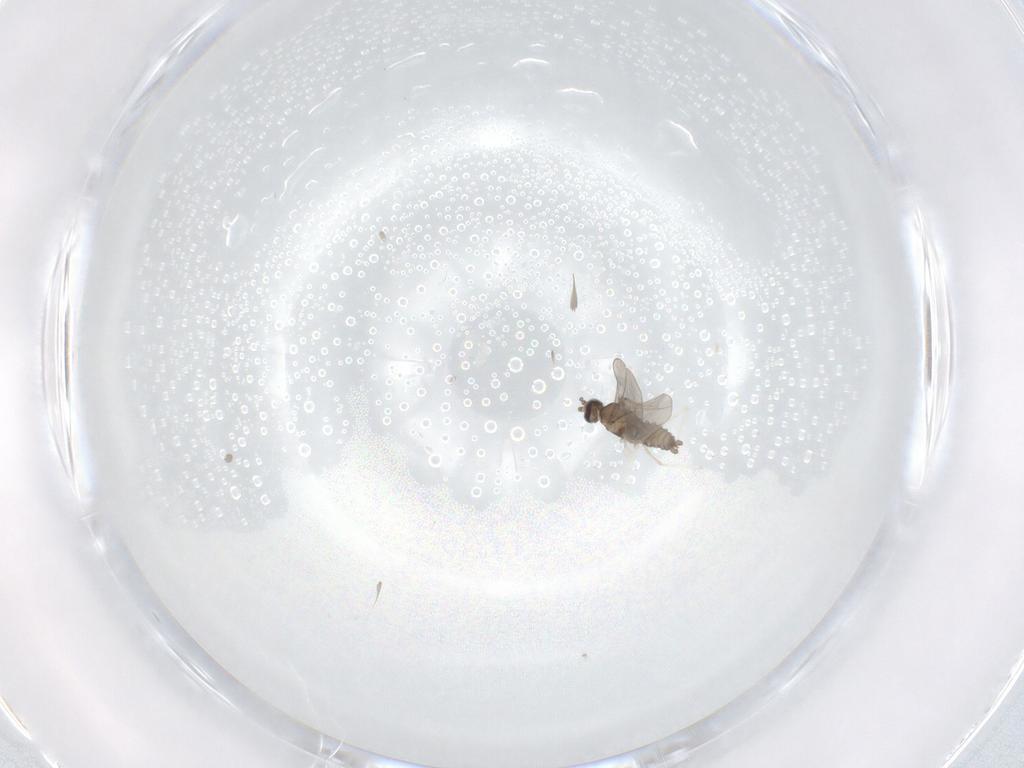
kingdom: Animalia
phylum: Arthropoda
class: Insecta
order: Diptera
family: Cecidomyiidae
